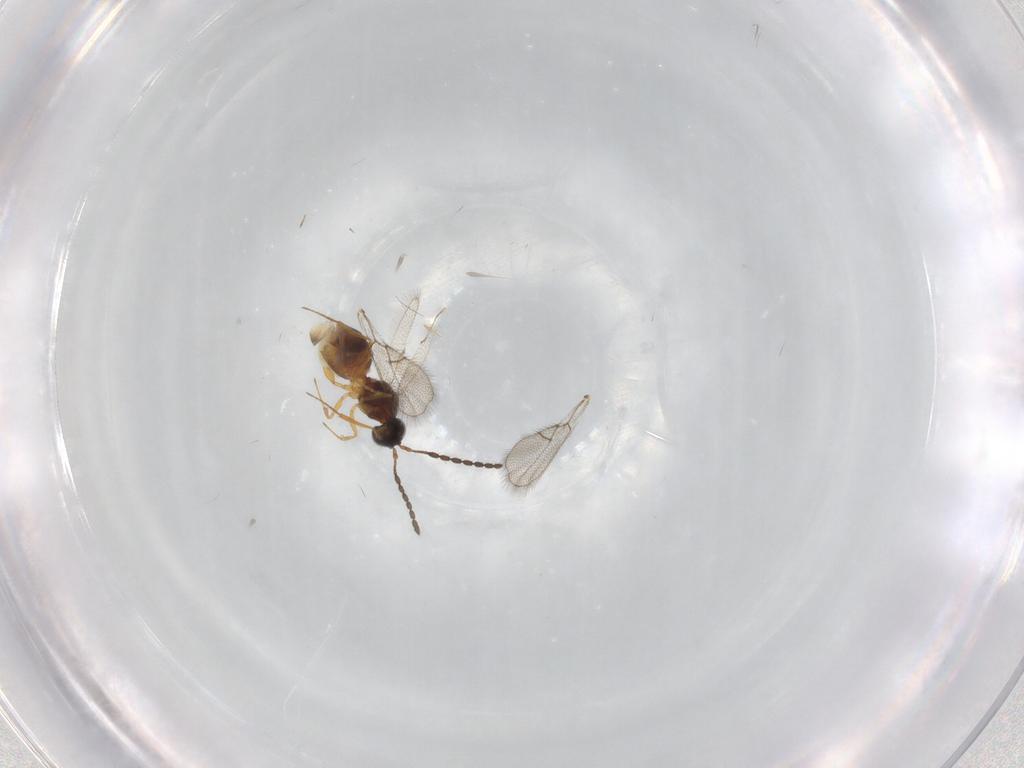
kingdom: Animalia
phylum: Arthropoda
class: Insecta
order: Hymenoptera
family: Figitidae
